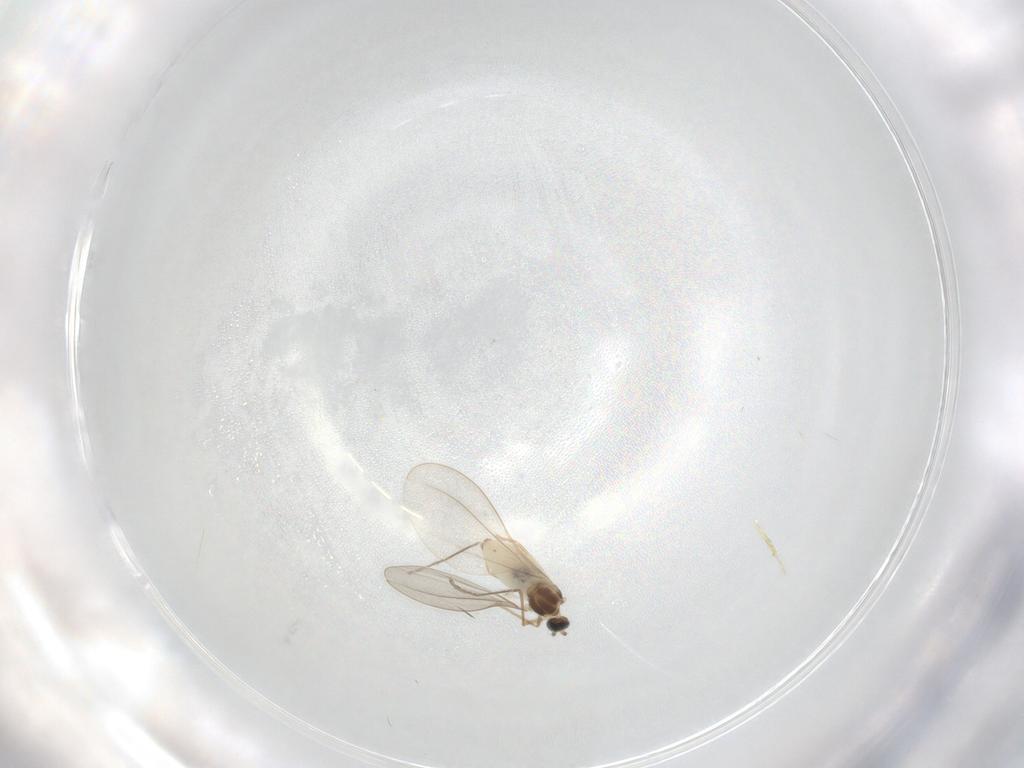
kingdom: Animalia
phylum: Arthropoda
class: Insecta
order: Diptera
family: Cecidomyiidae
